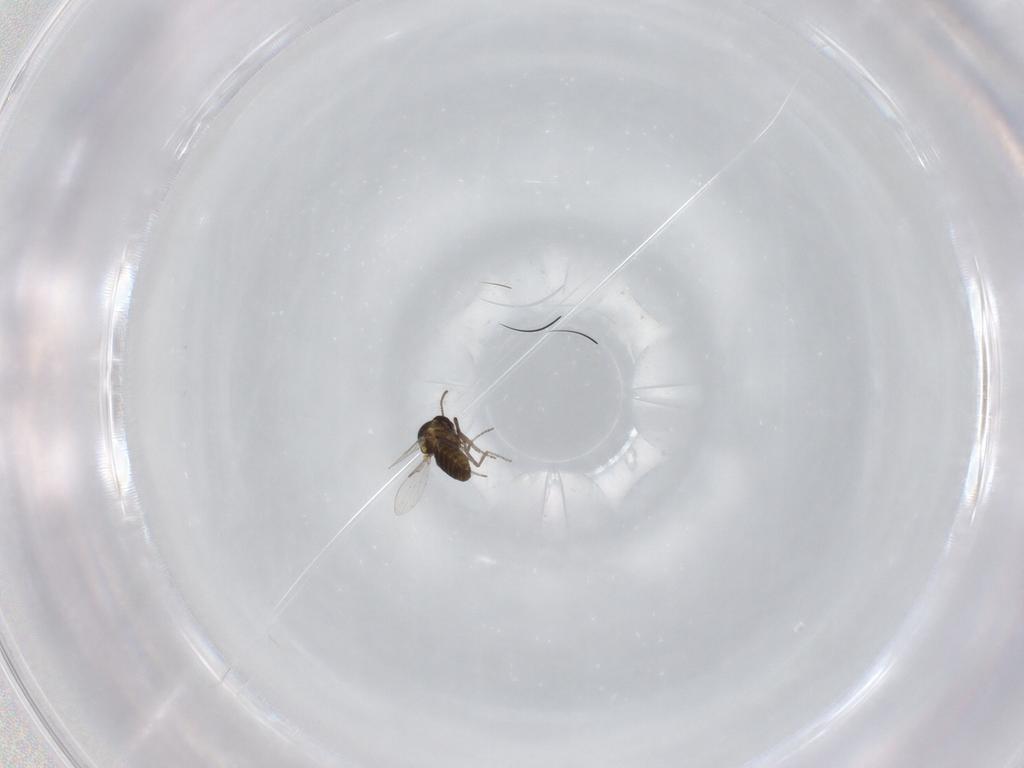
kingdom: Animalia
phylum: Arthropoda
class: Insecta
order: Diptera
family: Ceratopogonidae
